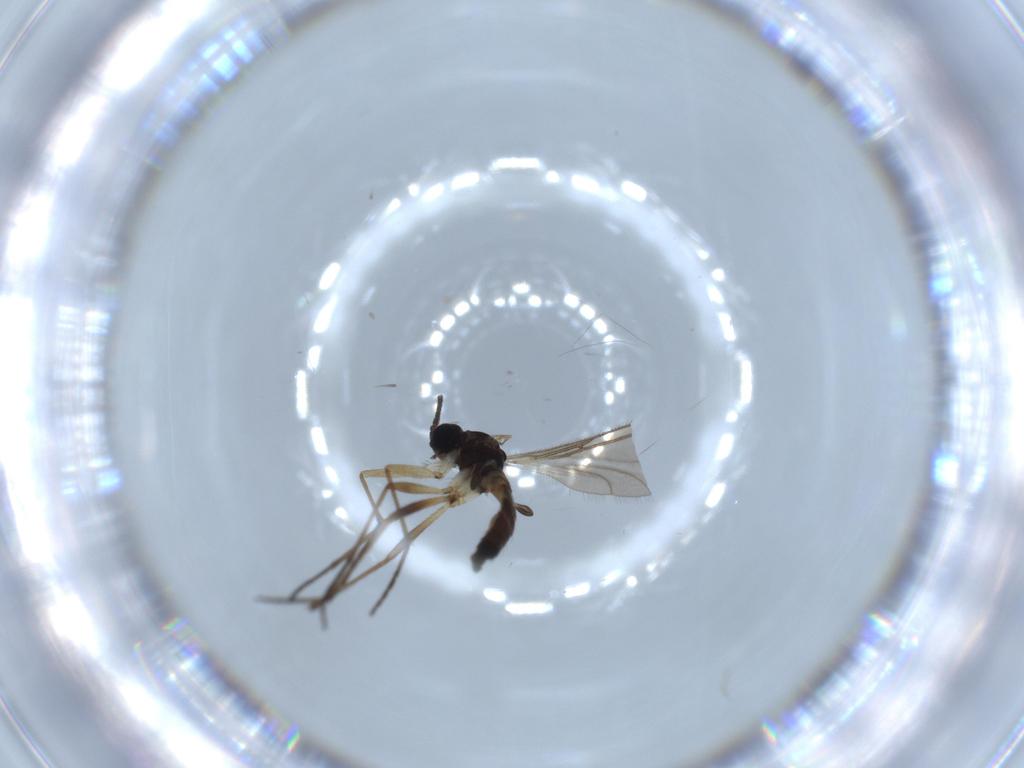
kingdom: Animalia
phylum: Arthropoda
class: Insecta
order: Diptera
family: Sciaridae
